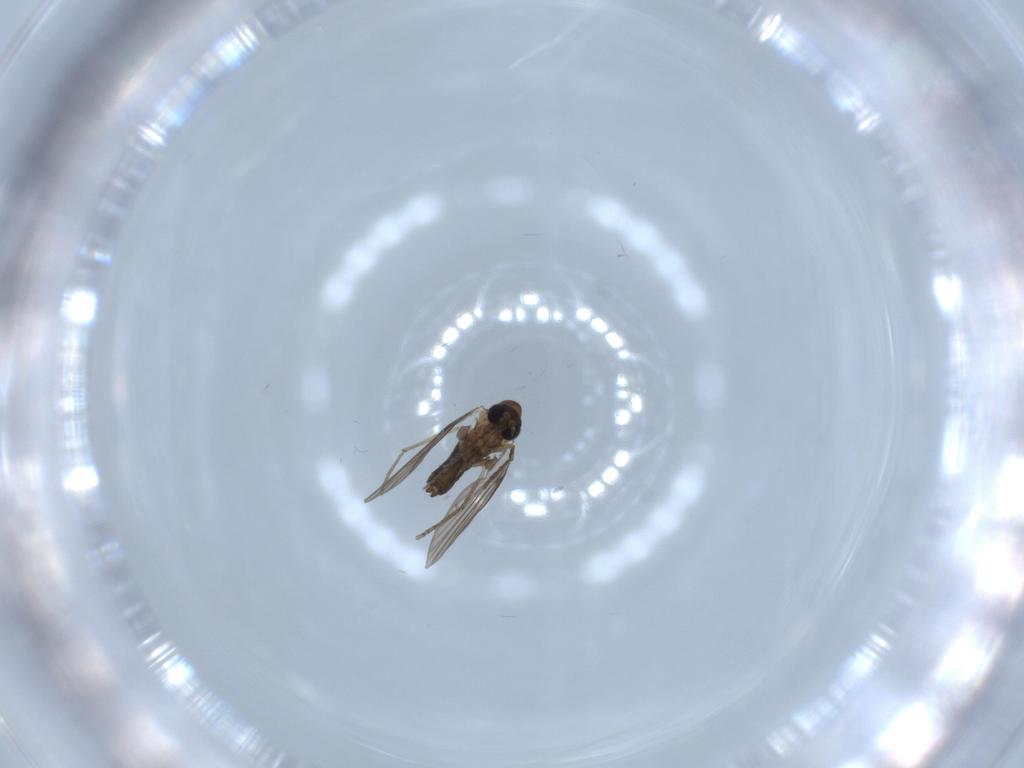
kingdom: Animalia
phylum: Arthropoda
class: Insecta
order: Diptera
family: Psychodidae
